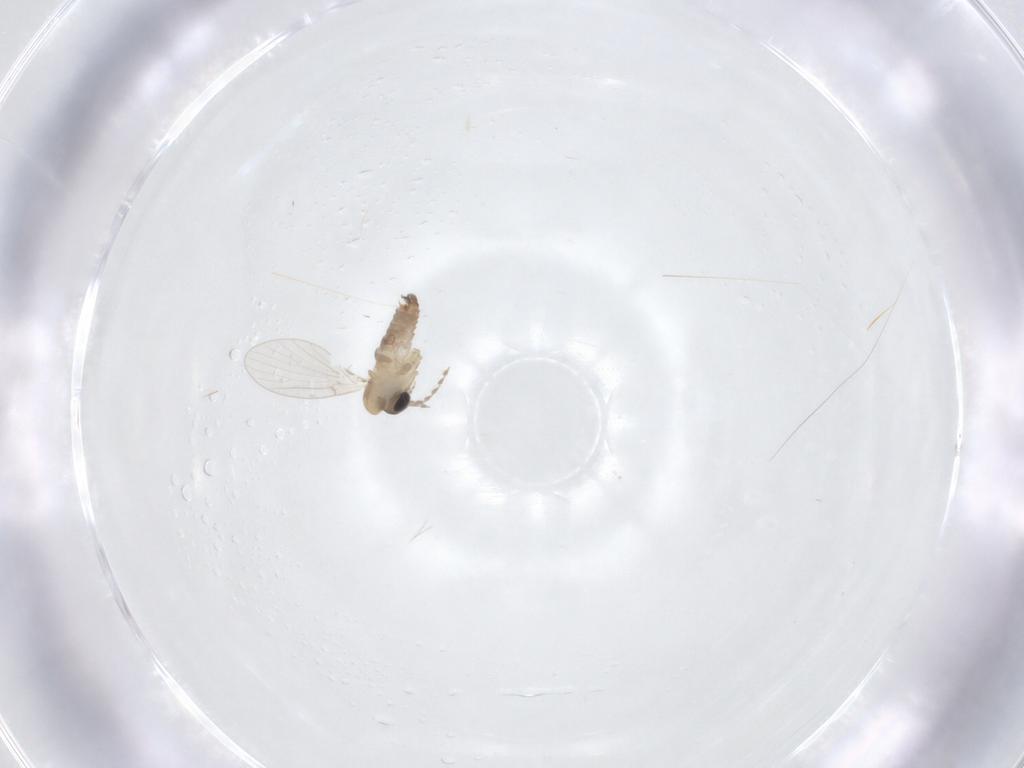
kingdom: Animalia
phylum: Arthropoda
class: Insecta
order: Diptera
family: Psychodidae
